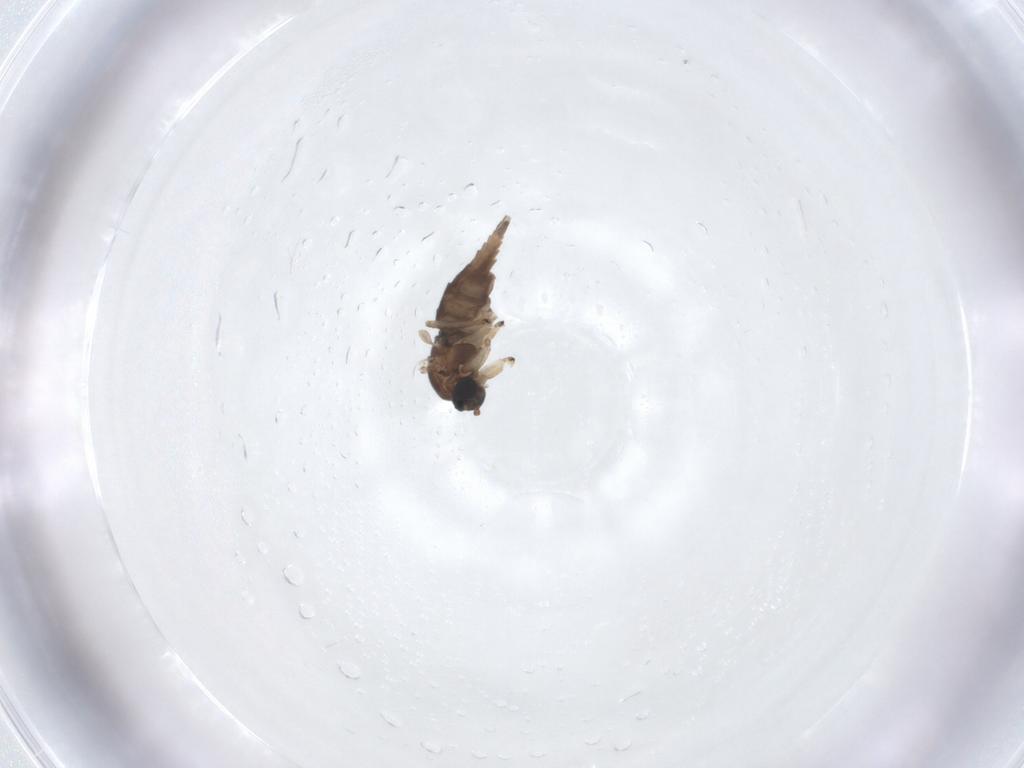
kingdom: Animalia
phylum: Arthropoda
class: Insecta
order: Diptera
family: Sciaridae
